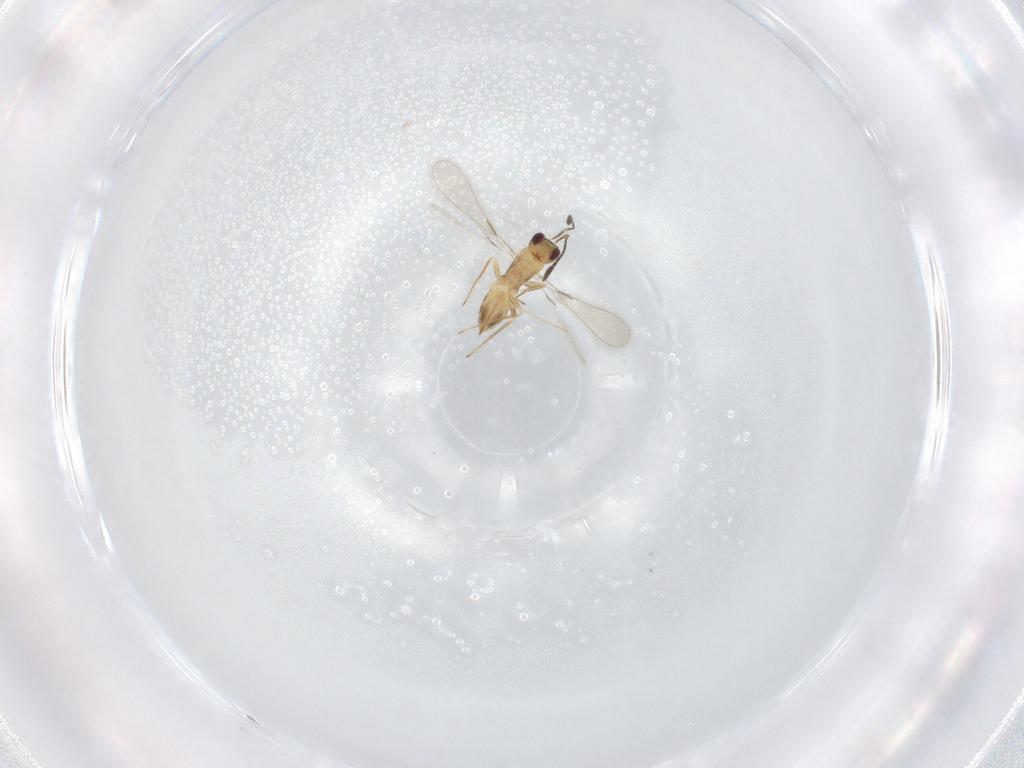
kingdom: Animalia
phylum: Arthropoda
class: Insecta
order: Hymenoptera
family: Mymaridae
